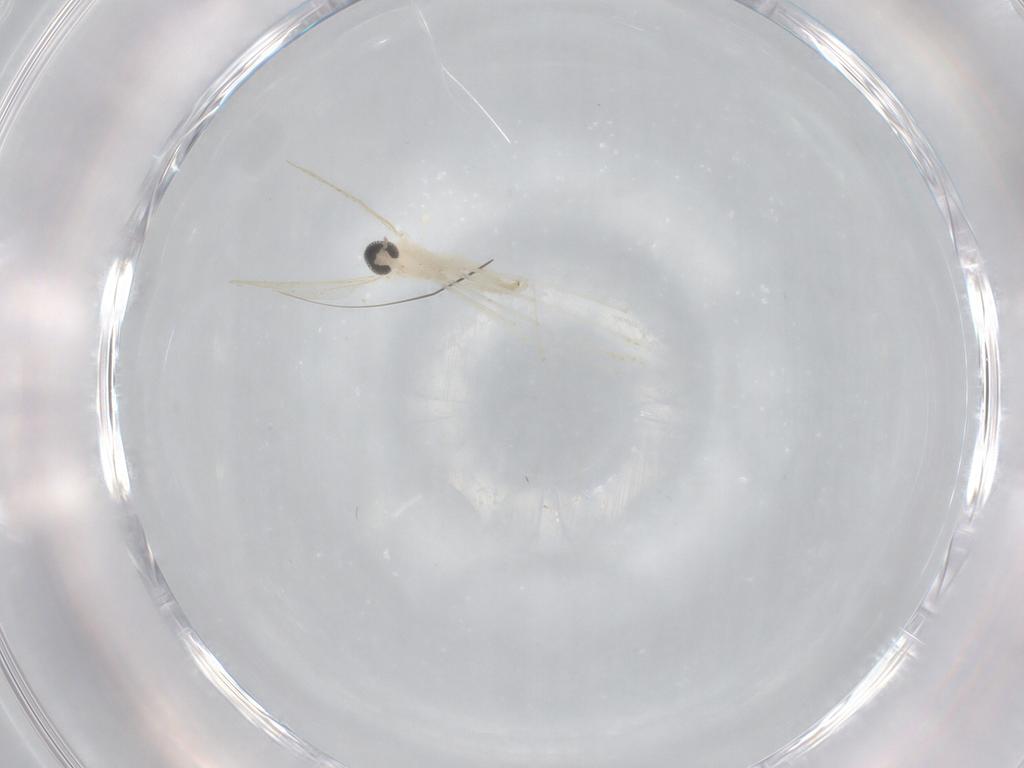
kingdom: Animalia
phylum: Arthropoda
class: Insecta
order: Diptera
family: Cecidomyiidae
